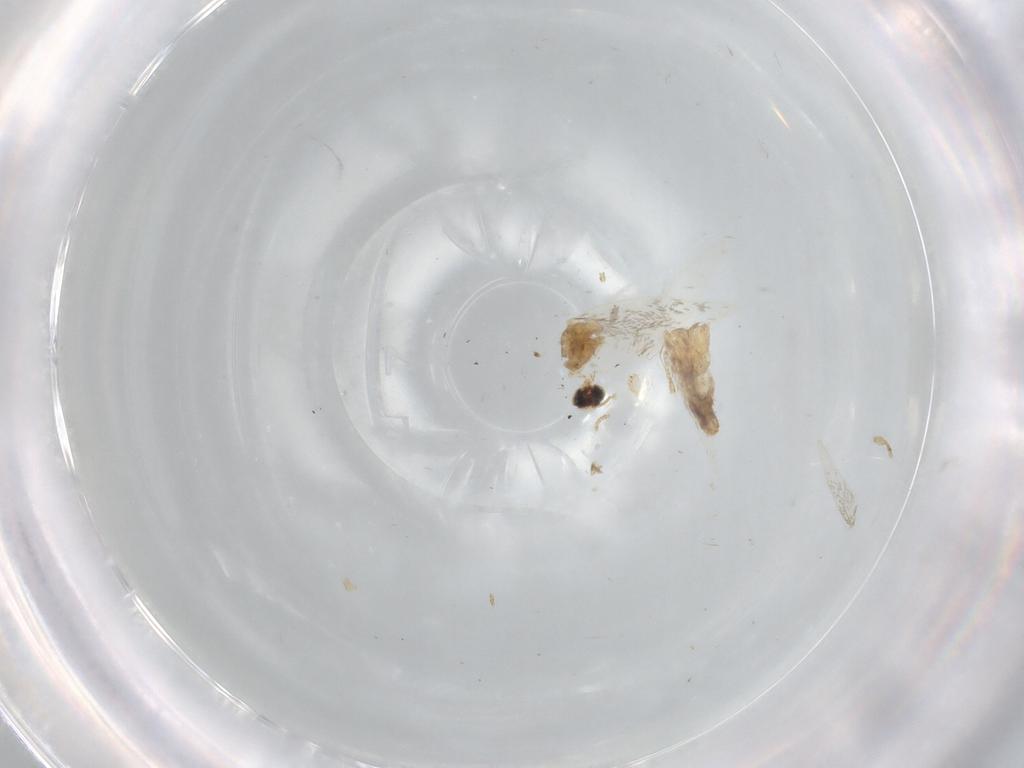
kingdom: Animalia
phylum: Arthropoda
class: Insecta
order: Lepidoptera
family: Nepticulidae
